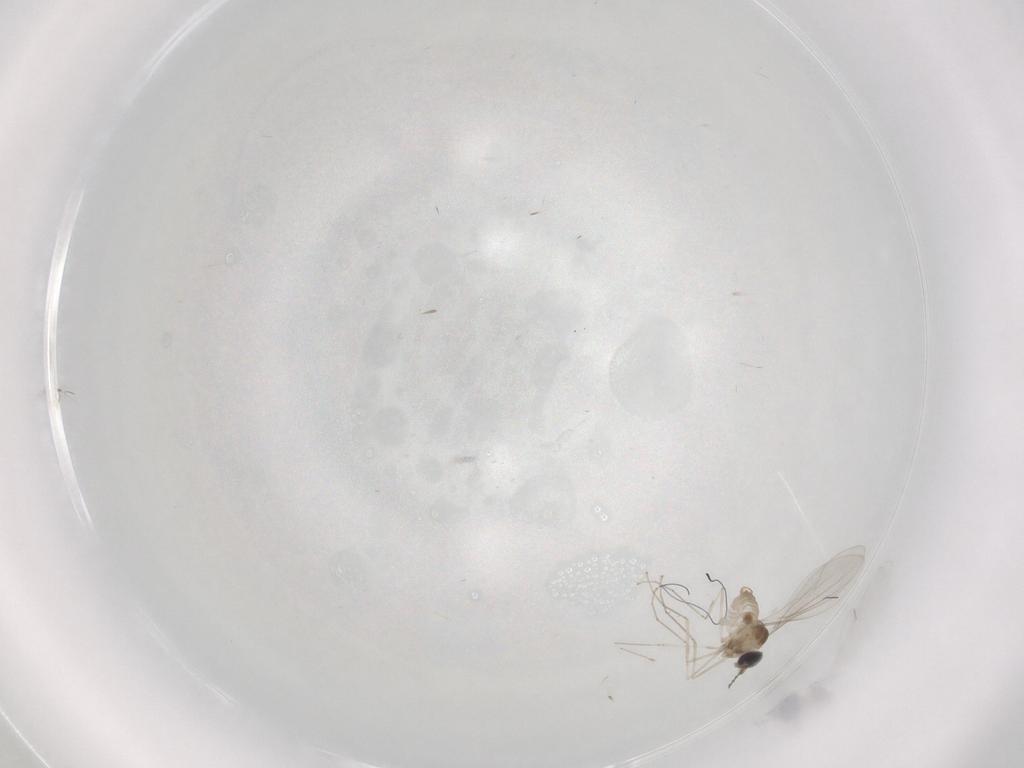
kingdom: Animalia
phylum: Arthropoda
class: Insecta
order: Diptera
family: Cecidomyiidae
